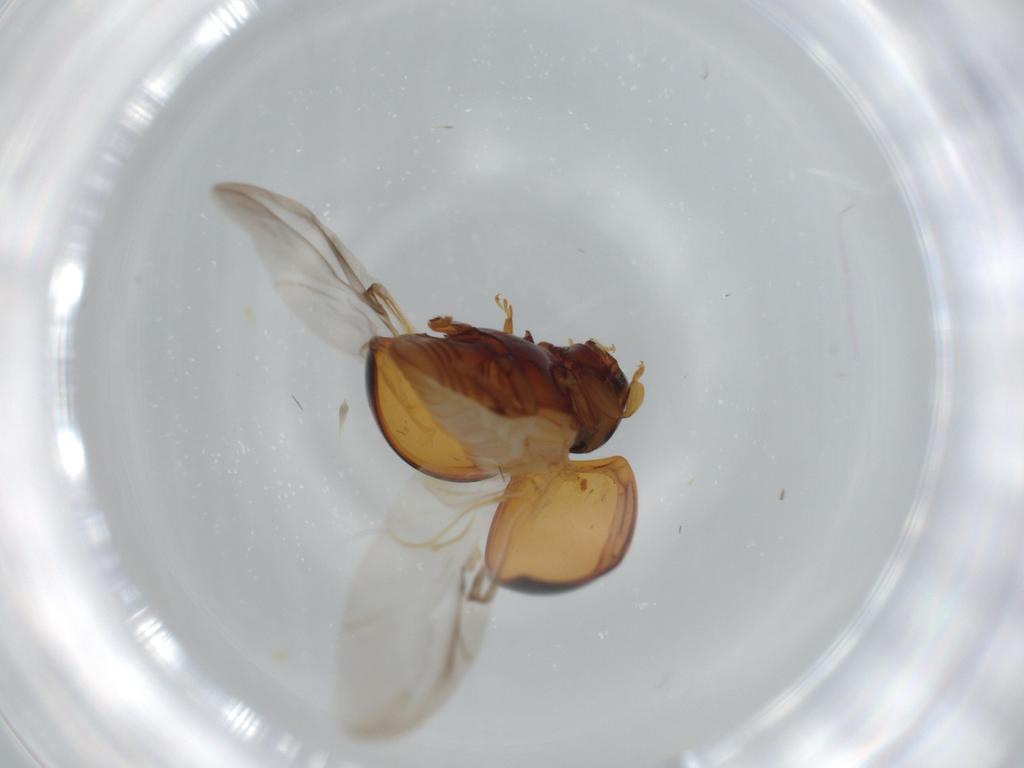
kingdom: Animalia
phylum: Arthropoda
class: Insecta
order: Coleoptera
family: Coccinellidae
